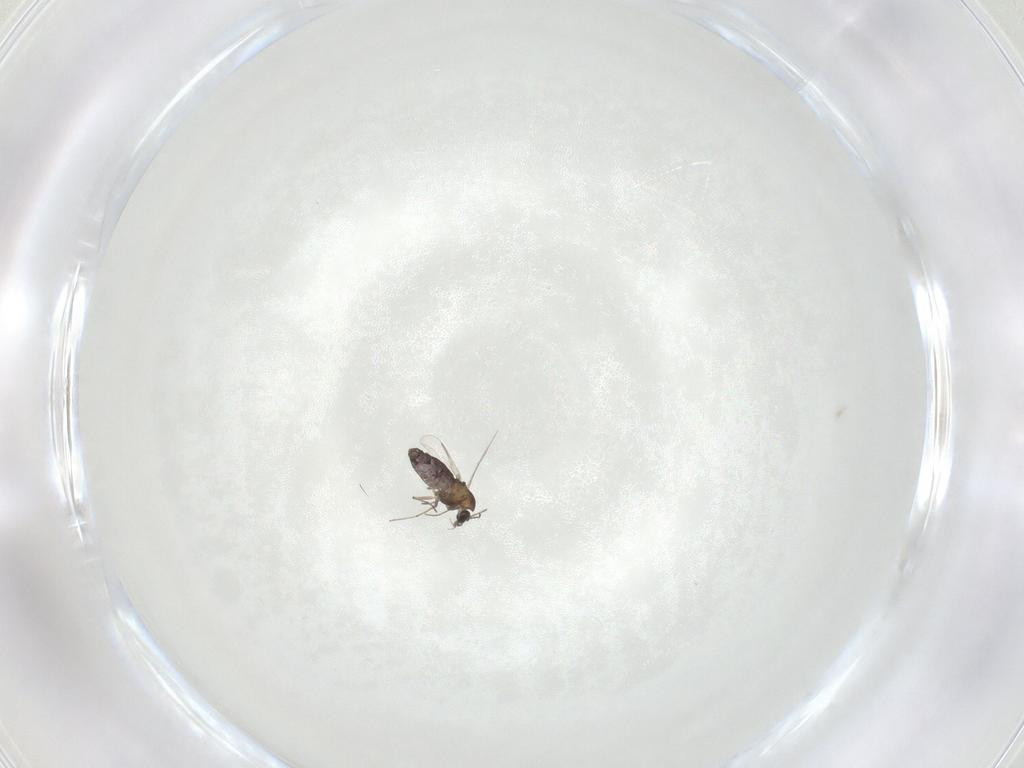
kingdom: Animalia
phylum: Arthropoda
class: Insecta
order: Diptera
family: Chironomidae
